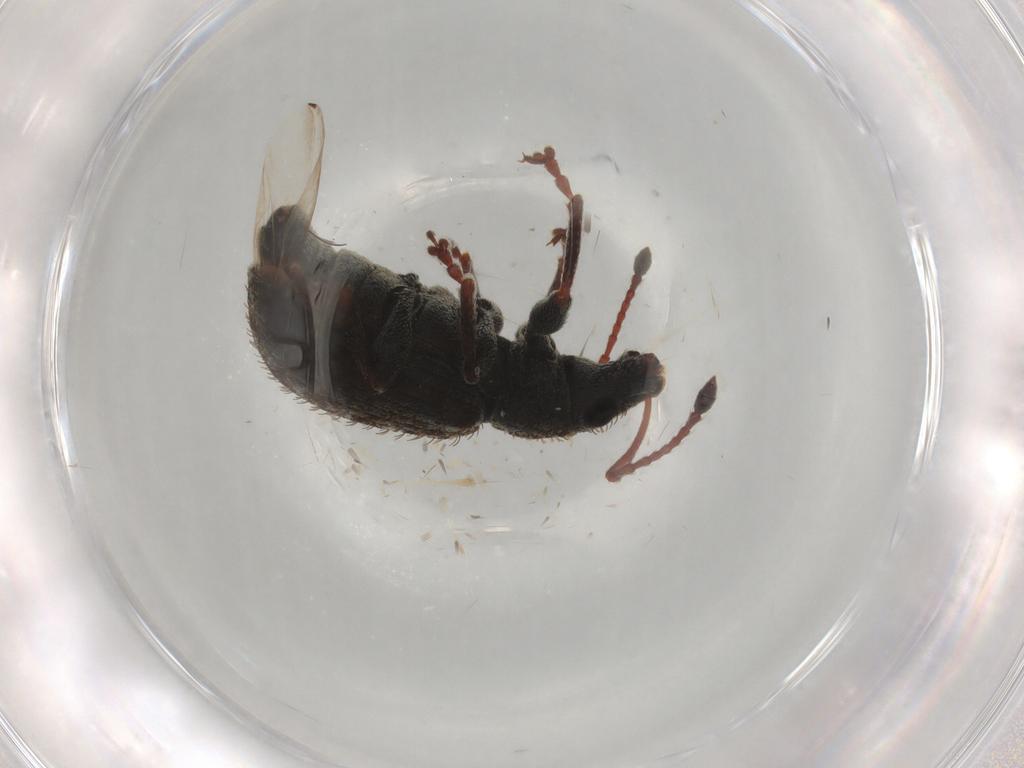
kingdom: Animalia
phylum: Arthropoda
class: Insecta
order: Coleoptera
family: Curculionidae
